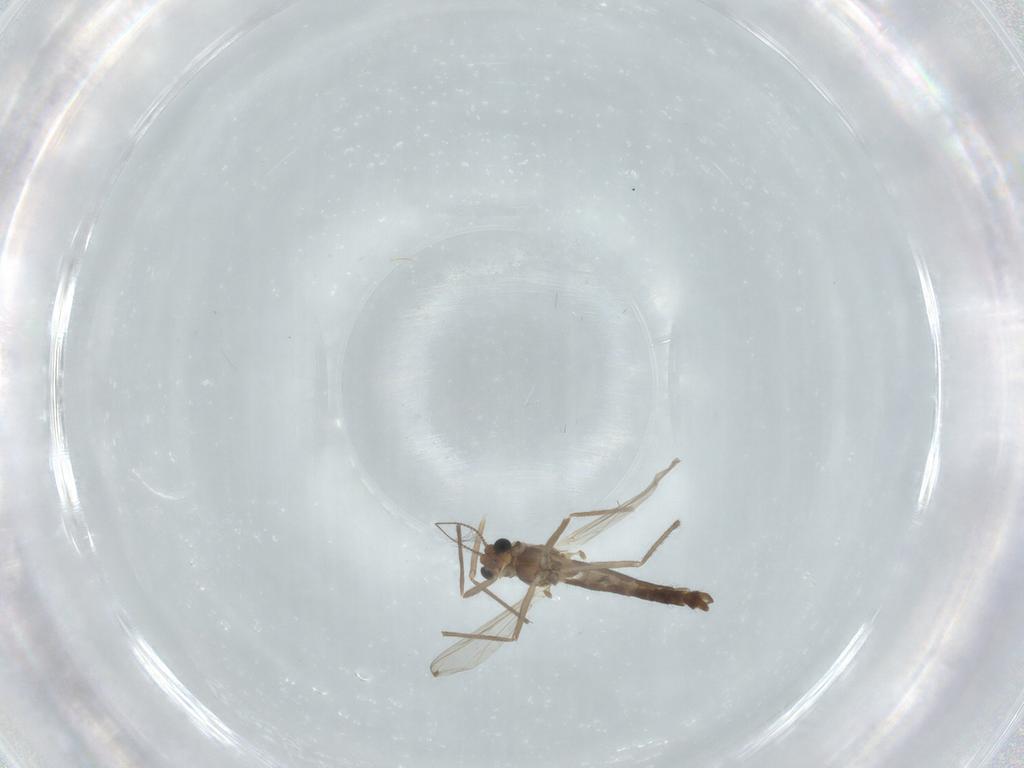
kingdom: Animalia
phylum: Arthropoda
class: Insecta
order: Diptera
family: Chironomidae
